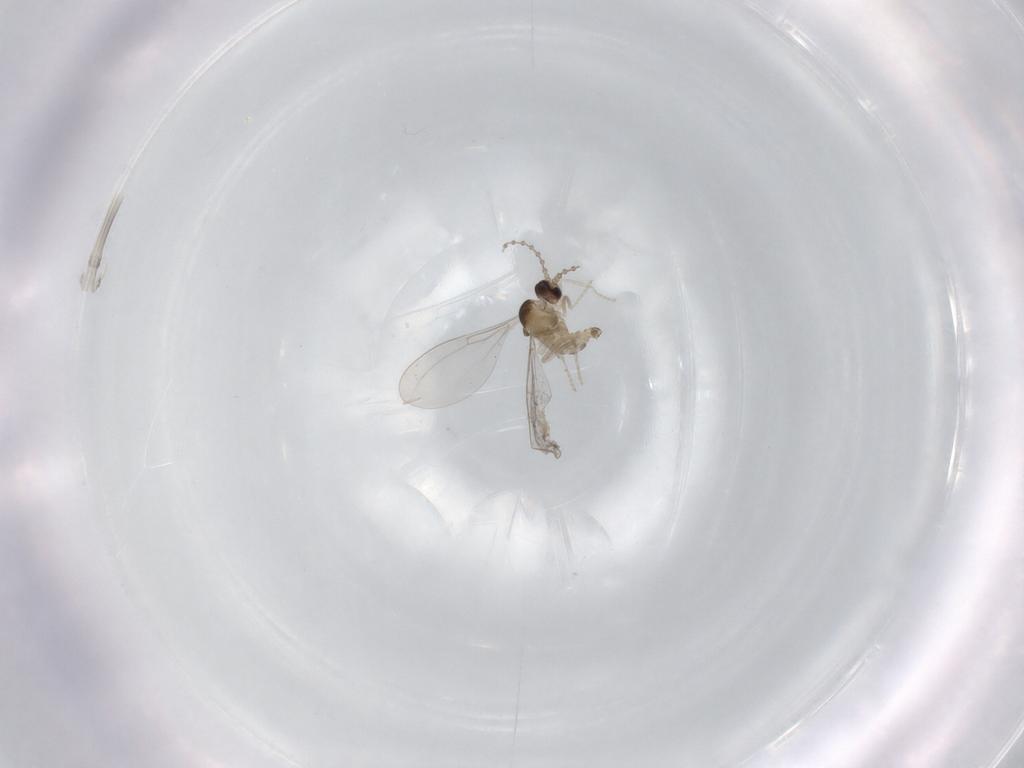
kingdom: Animalia
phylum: Arthropoda
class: Insecta
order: Diptera
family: Cecidomyiidae
